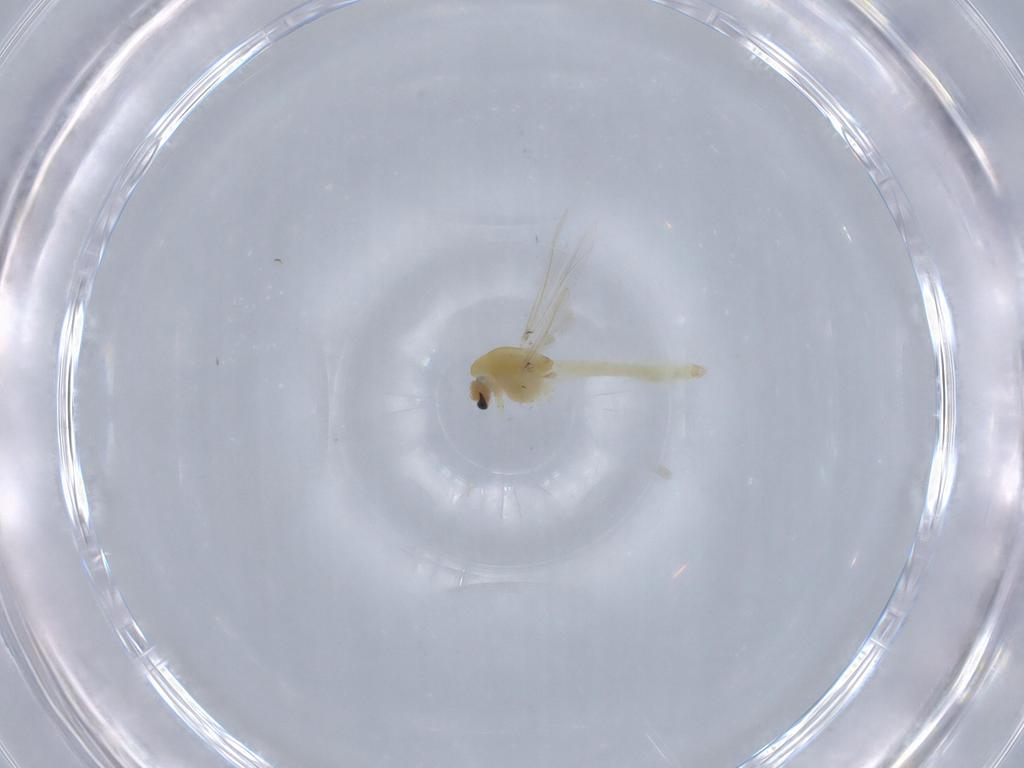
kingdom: Animalia
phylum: Arthropoda
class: Insecta
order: Diptera
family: Chironomidae
